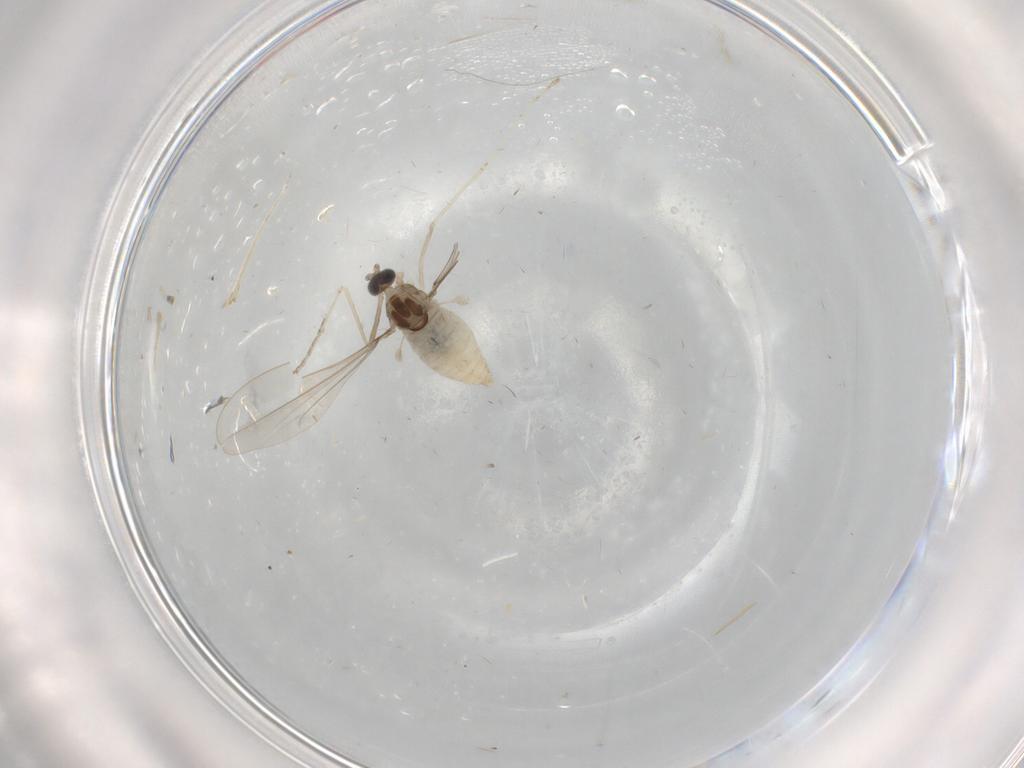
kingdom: Animalia
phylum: Arthropoda
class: Insecta
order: Diptera
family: Cecidomyiidae
